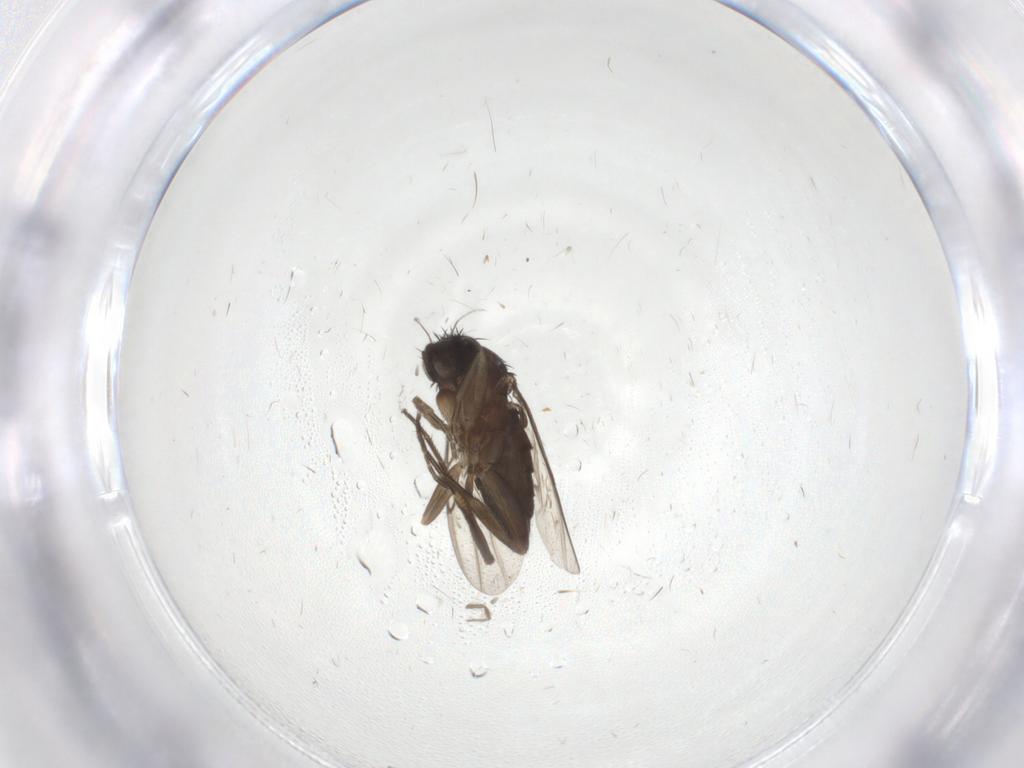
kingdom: Animalia
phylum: Arthropoda
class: Insecta
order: Diptera
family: Phoridae
